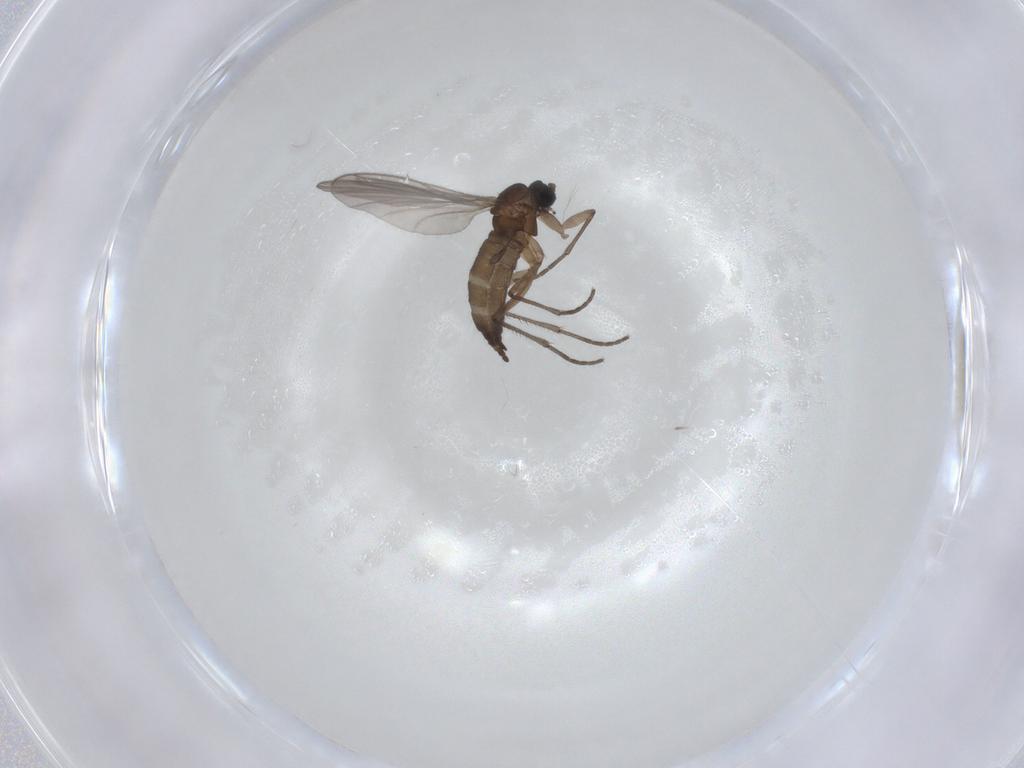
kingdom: Animalia
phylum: Arthropoda
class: Insecta
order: Diptera
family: Sciaridae
